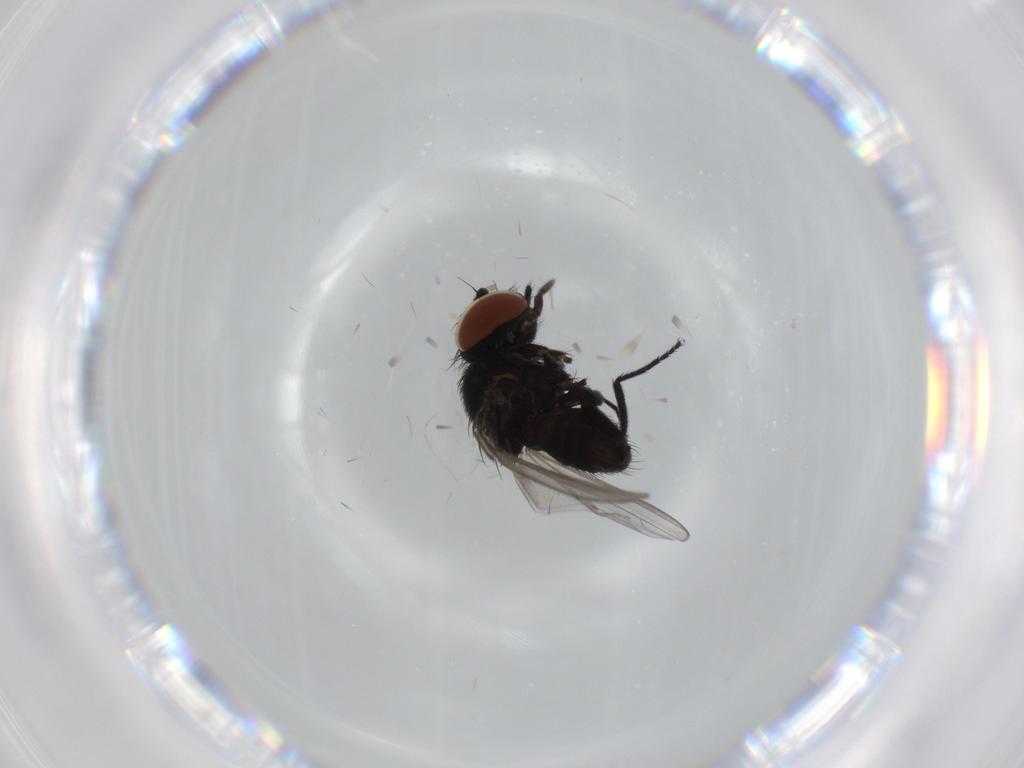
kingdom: Animalia
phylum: Arthropoda
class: Insecta
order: Diptera
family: Milichiidae
